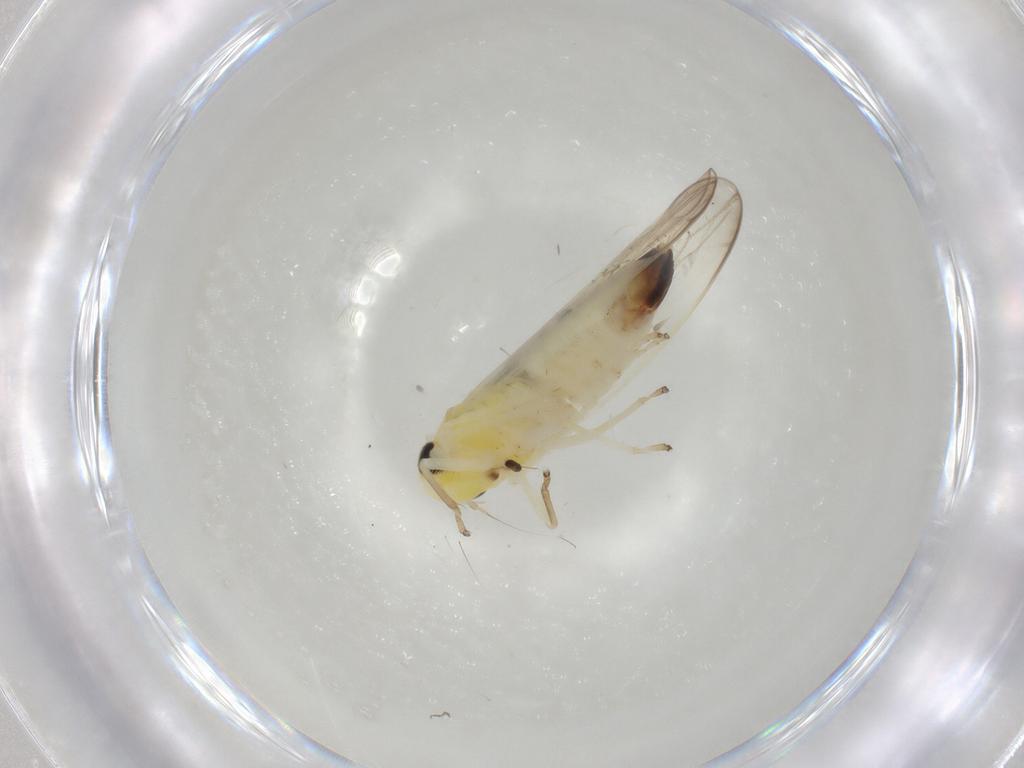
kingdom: Animalia
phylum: Arthropoda
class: Insecta
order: Hemiptera
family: Cicadellidae
